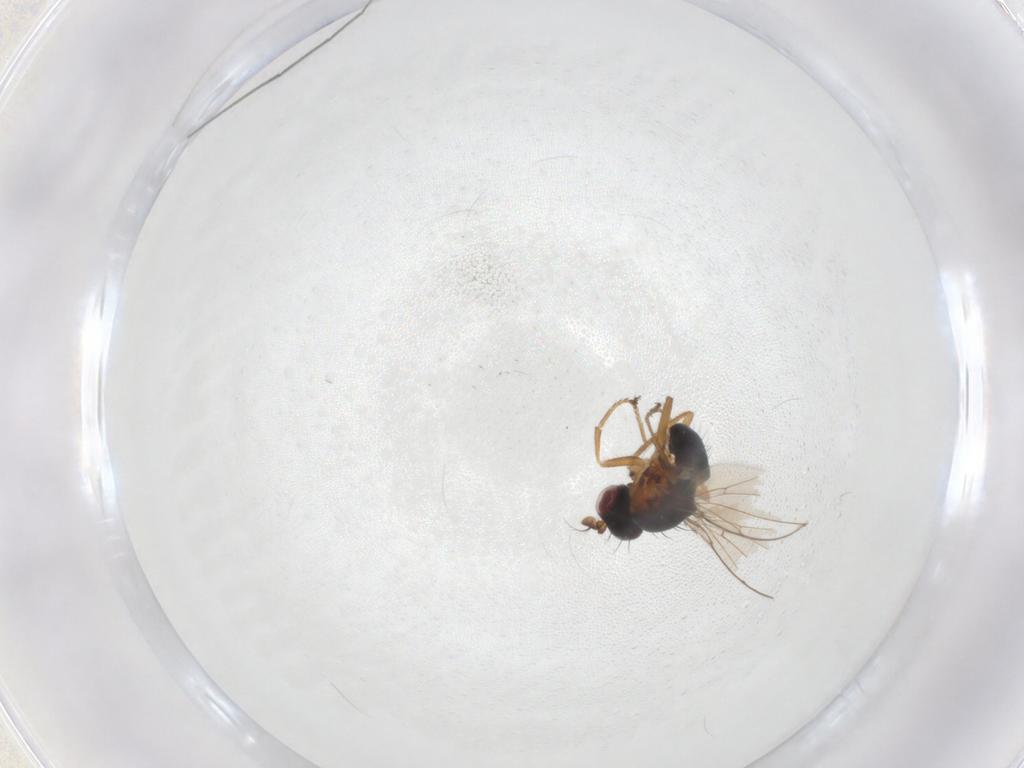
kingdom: Animalia
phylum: Arthropoda
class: Insecta
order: Diptera
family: Ephydridae
